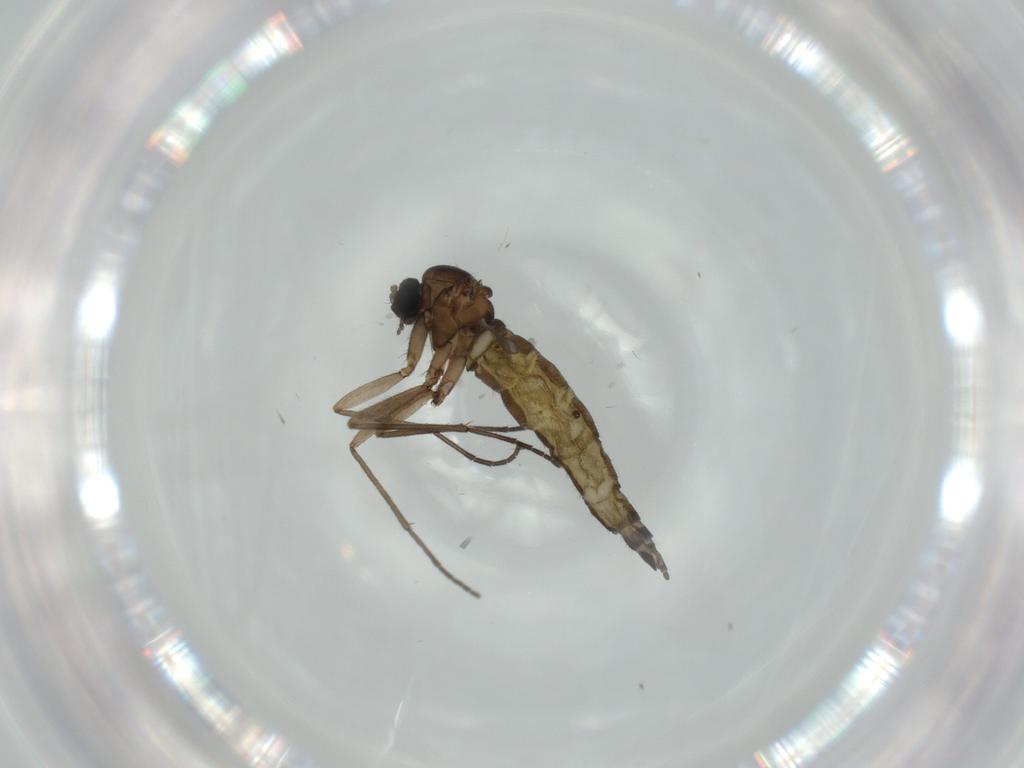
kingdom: Animalia
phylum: Arthropoda
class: Insecta
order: Diptera
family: Sciaridae
